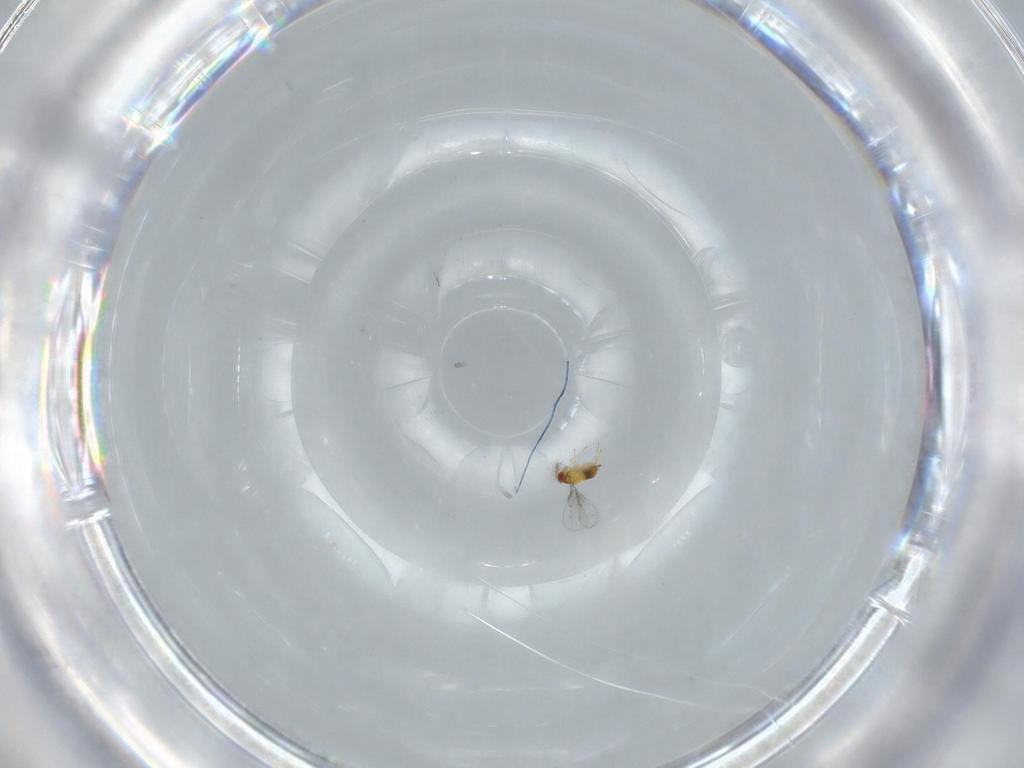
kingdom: Animalia
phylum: Arthropoda
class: Insecta
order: Hymenoptera
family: Trichogrammatidae
